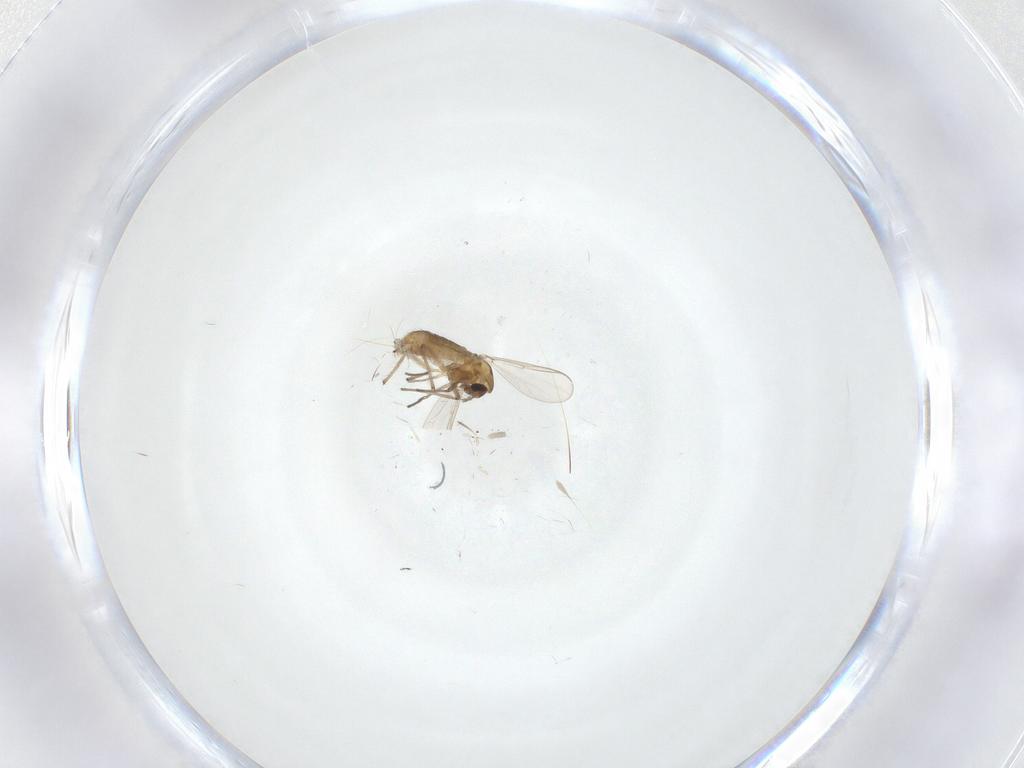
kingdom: Animalia
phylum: Arthropoda
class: Insecta
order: Diptera
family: Chironomidae
